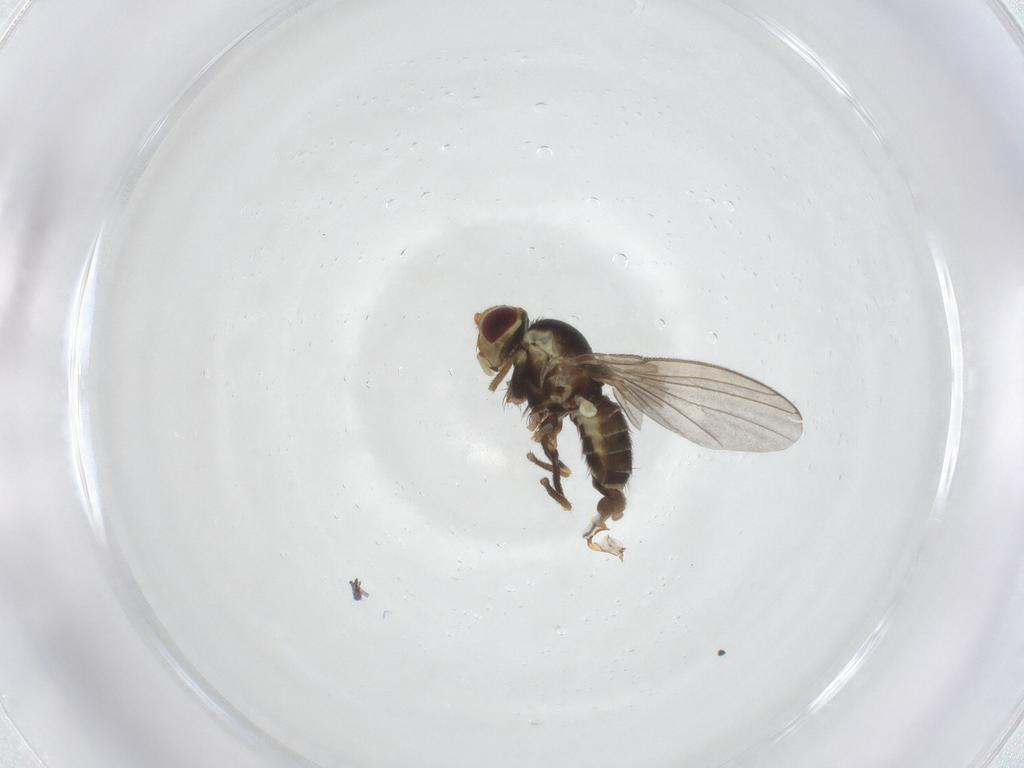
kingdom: Animalia
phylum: Arthropoda
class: Insecta
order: Diptera
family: Agromyzidae
